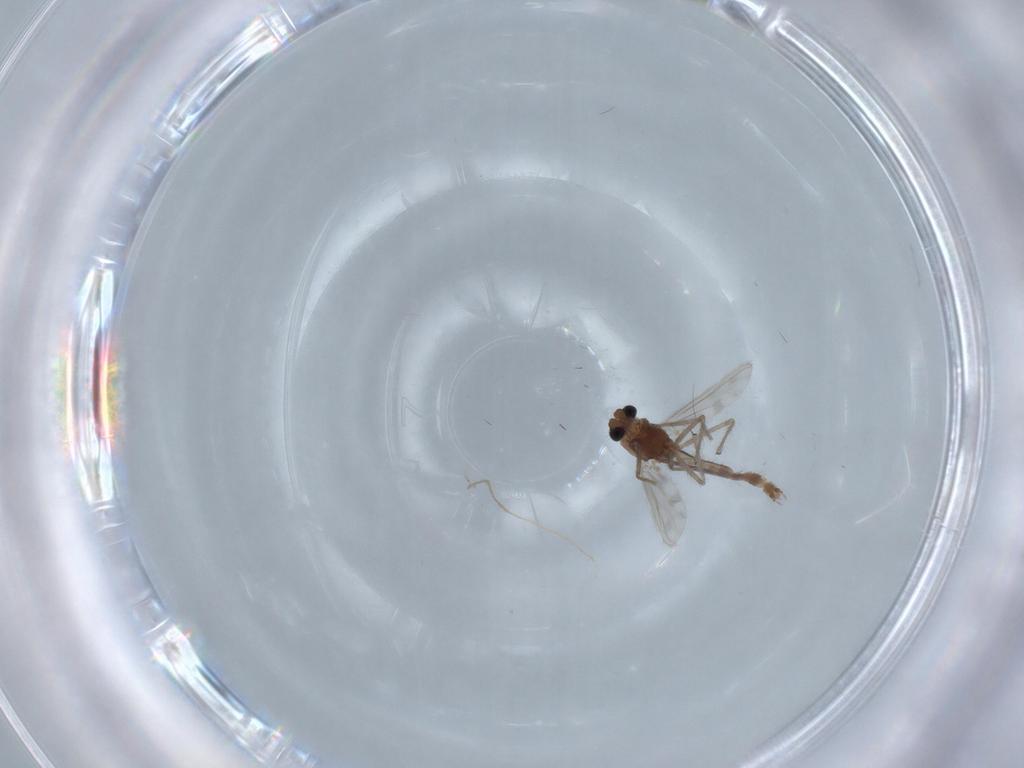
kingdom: Animalia
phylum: Arthropoda
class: Insecta
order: Diptera
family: Chironomidae
